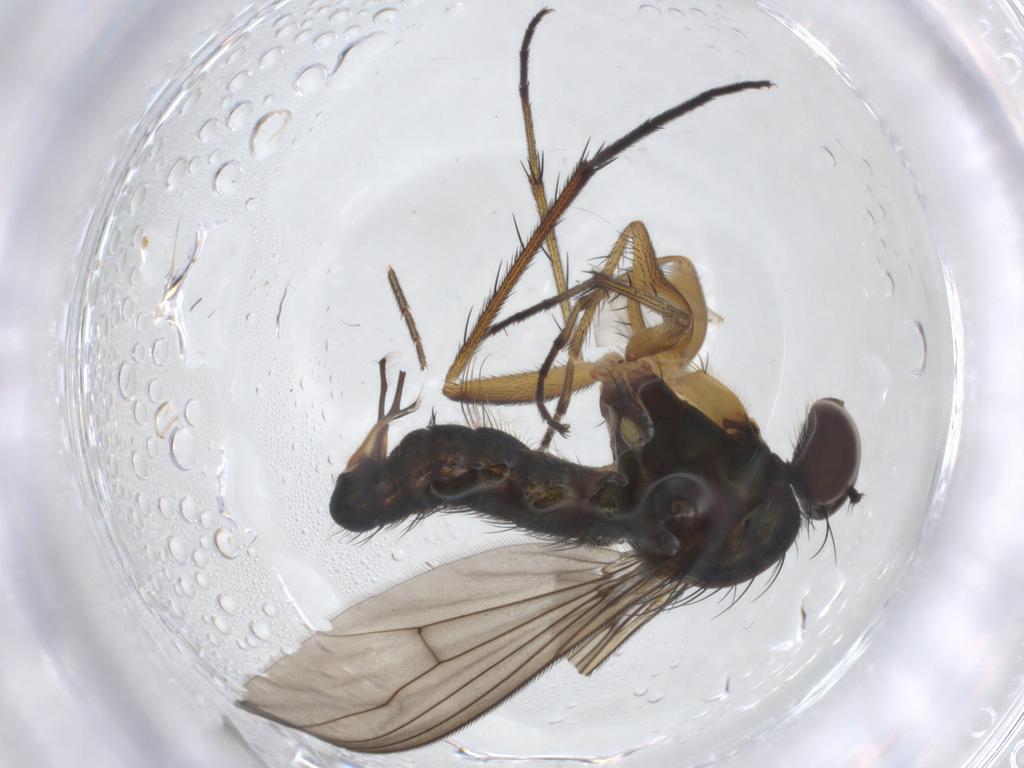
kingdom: Animalia
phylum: Arthropoda
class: Insecta
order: Diptera
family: Dolichopodidae
